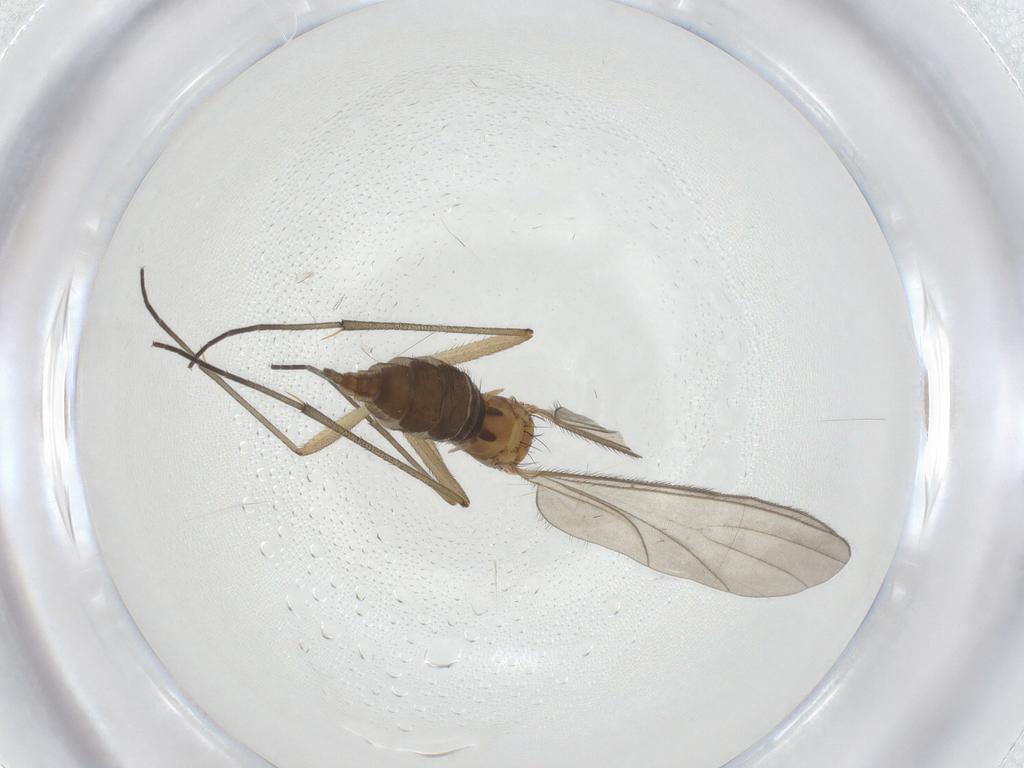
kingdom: Animalia
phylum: Arthropoda
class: Insecta
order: Diptera
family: Sciaridae
